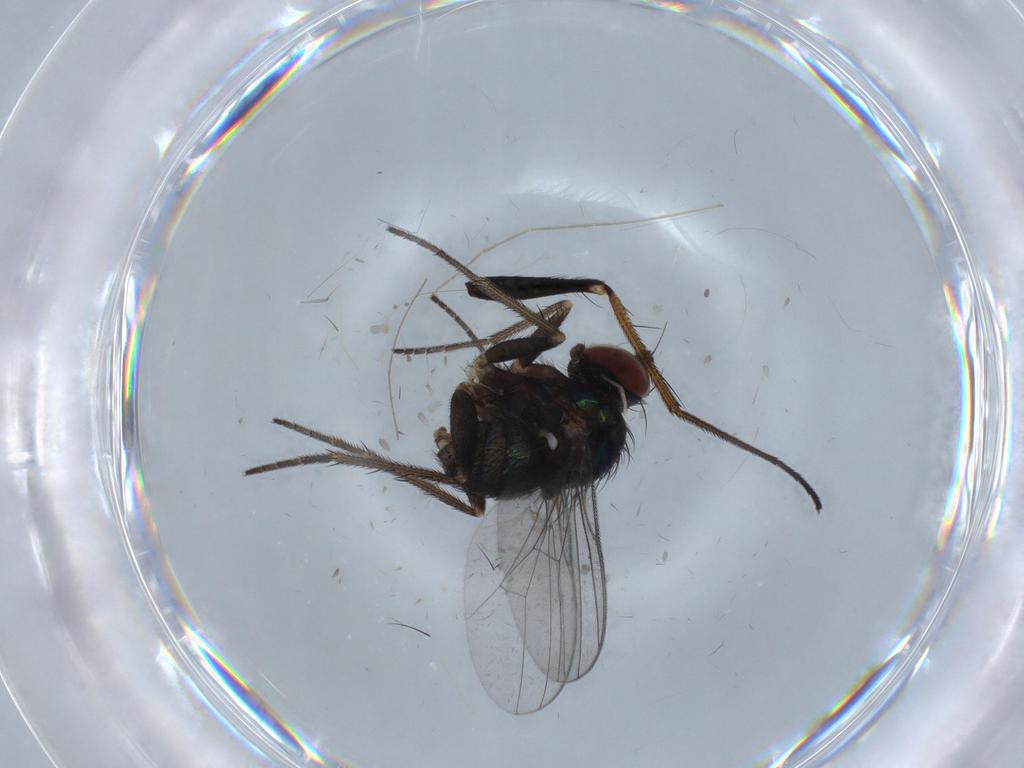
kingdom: Animalia
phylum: Arthropoda
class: Insecta
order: Diptera
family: Dolichopodidae
